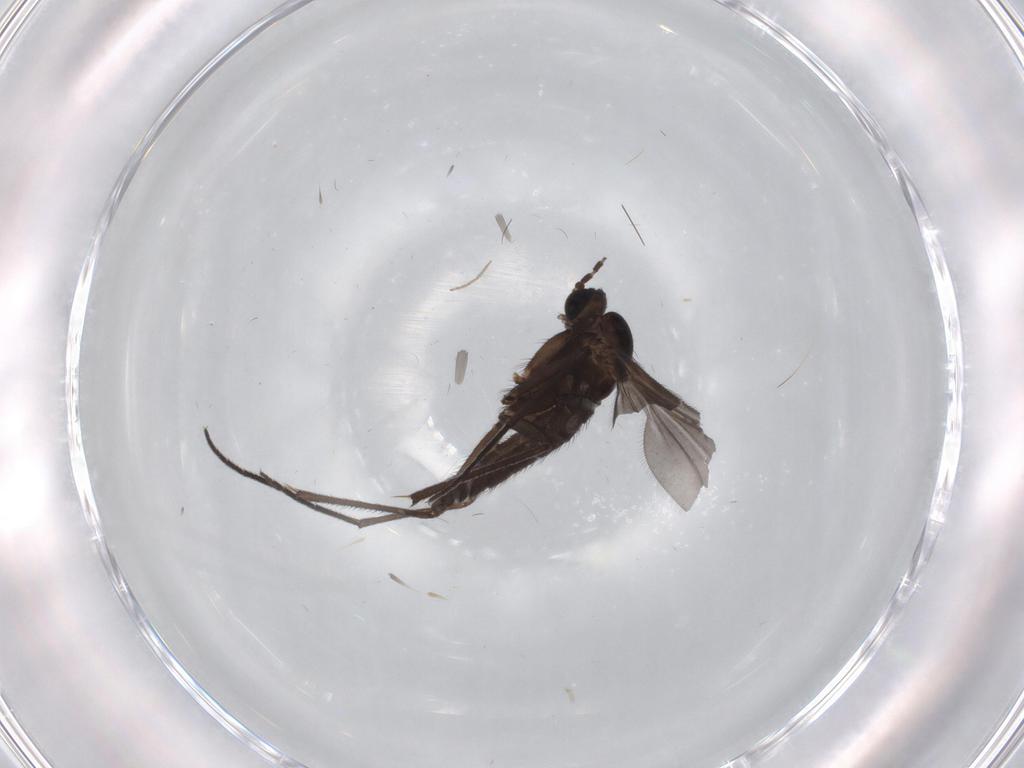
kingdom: Animalia
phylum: Arthropoda
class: Insecta
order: Diptera
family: Sciaridae
